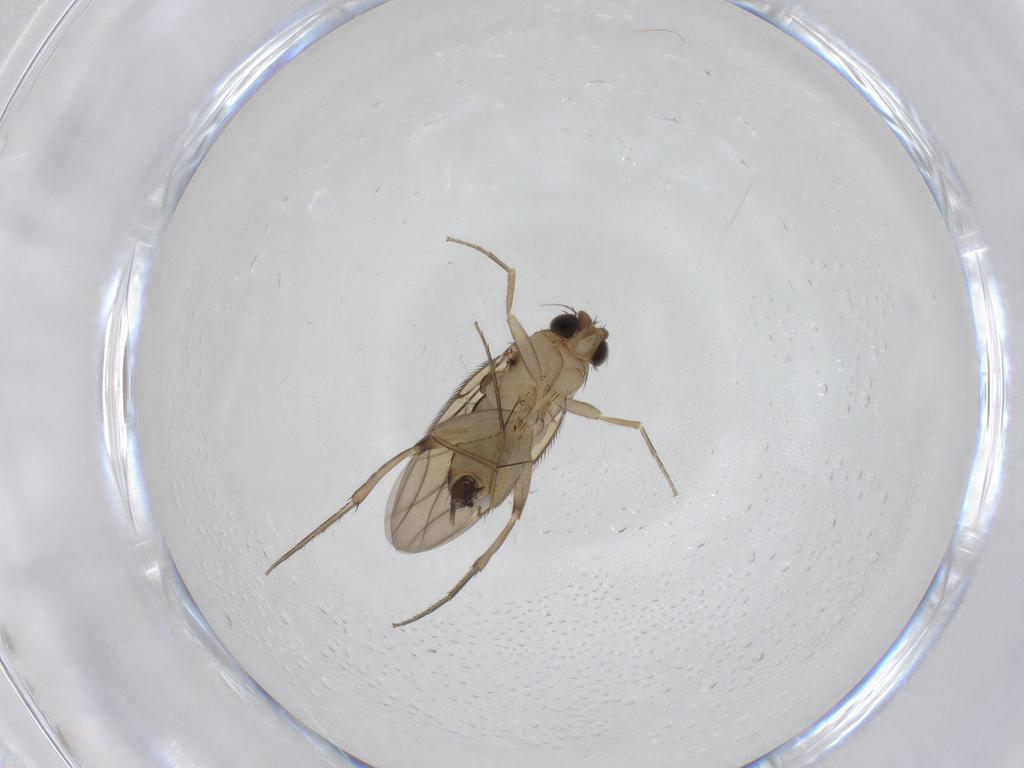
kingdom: Animalia
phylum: Arthropoda
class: Insecta
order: Diptera
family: Phoridae
